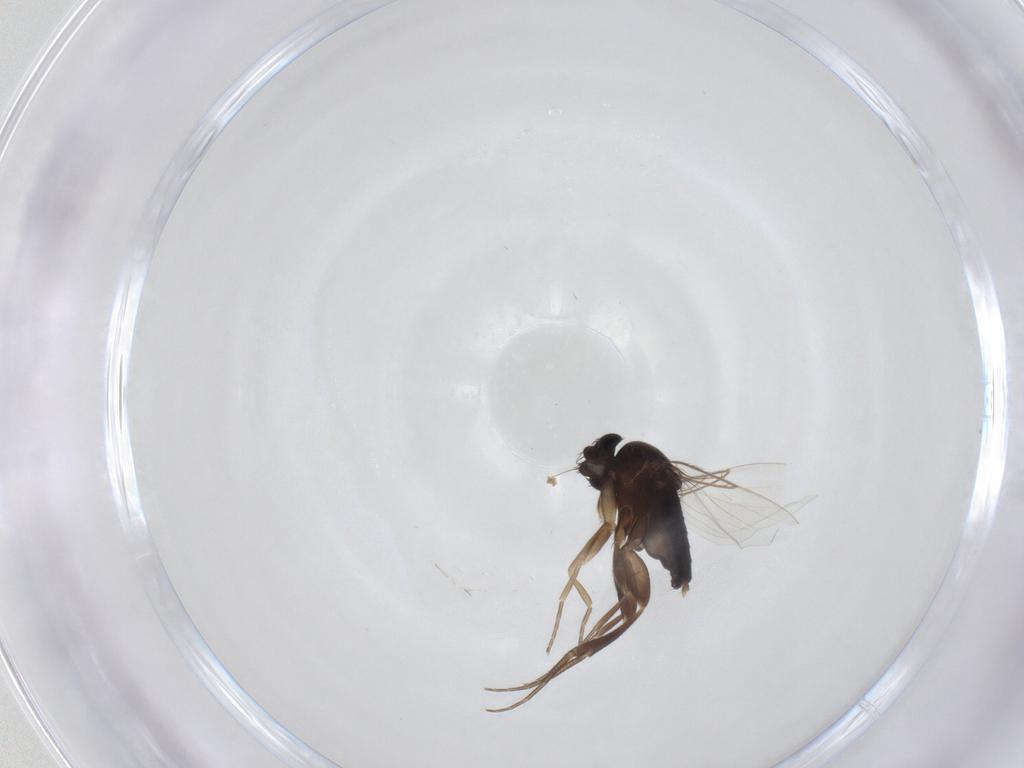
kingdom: Animalia
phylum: Arthropoda
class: Insecta
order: Diptera
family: Phoridae
